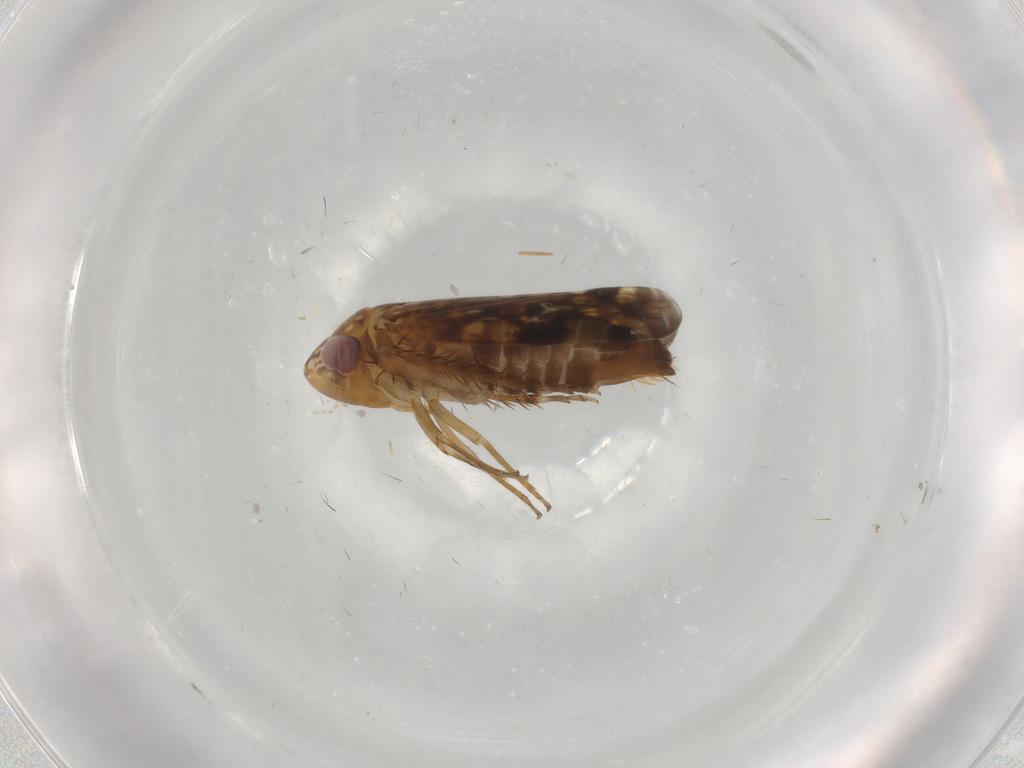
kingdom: Animalia
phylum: Arthropoda
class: Insecta
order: Hemiptera
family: Cicadellidae
